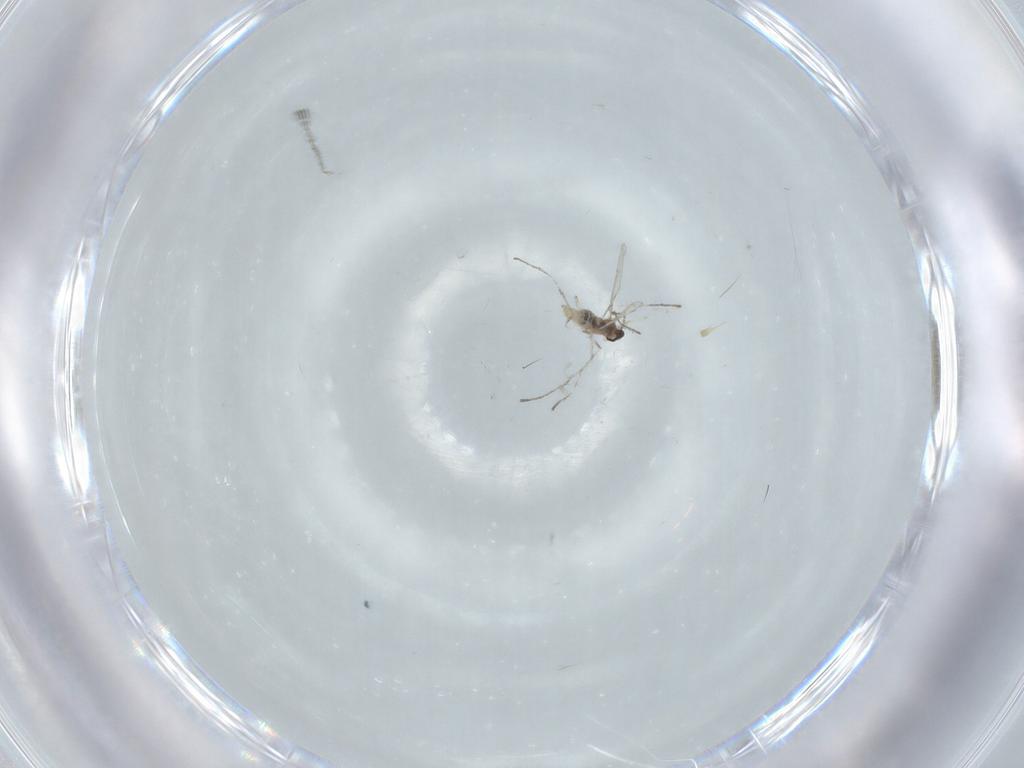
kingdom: Animalia
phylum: Arthropoda
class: Insecta
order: Diptera
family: Cecidomyiidae
